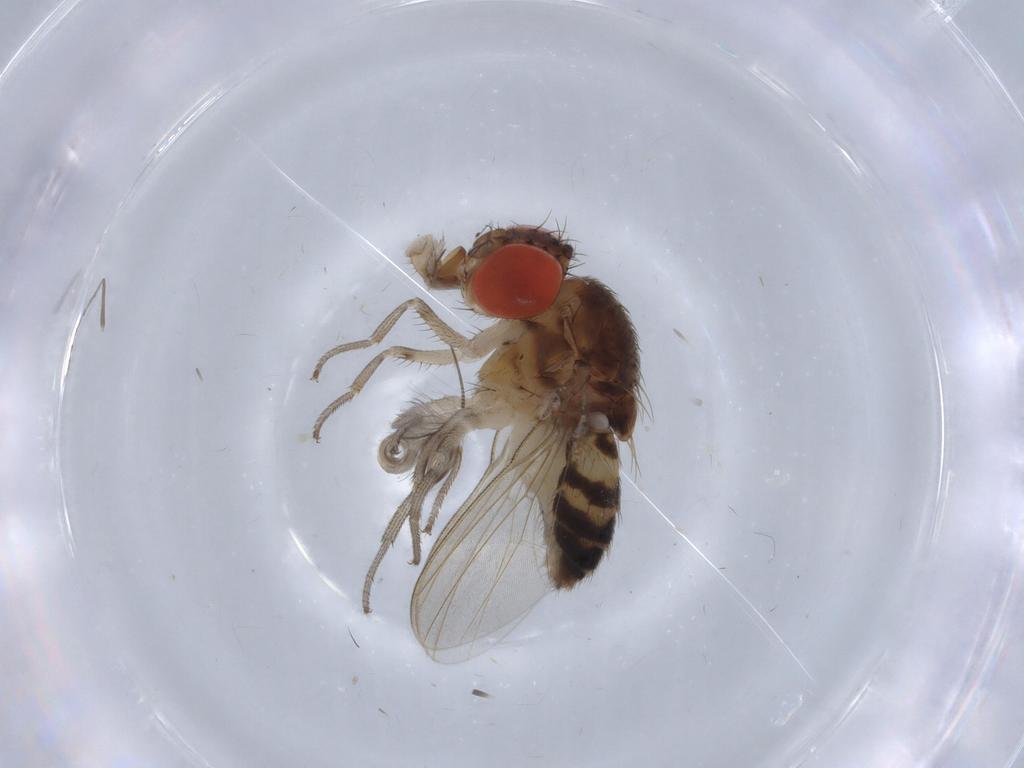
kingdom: Animalia
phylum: Arthropoda
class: Insecta
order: Diptera
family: Drosophilidae
